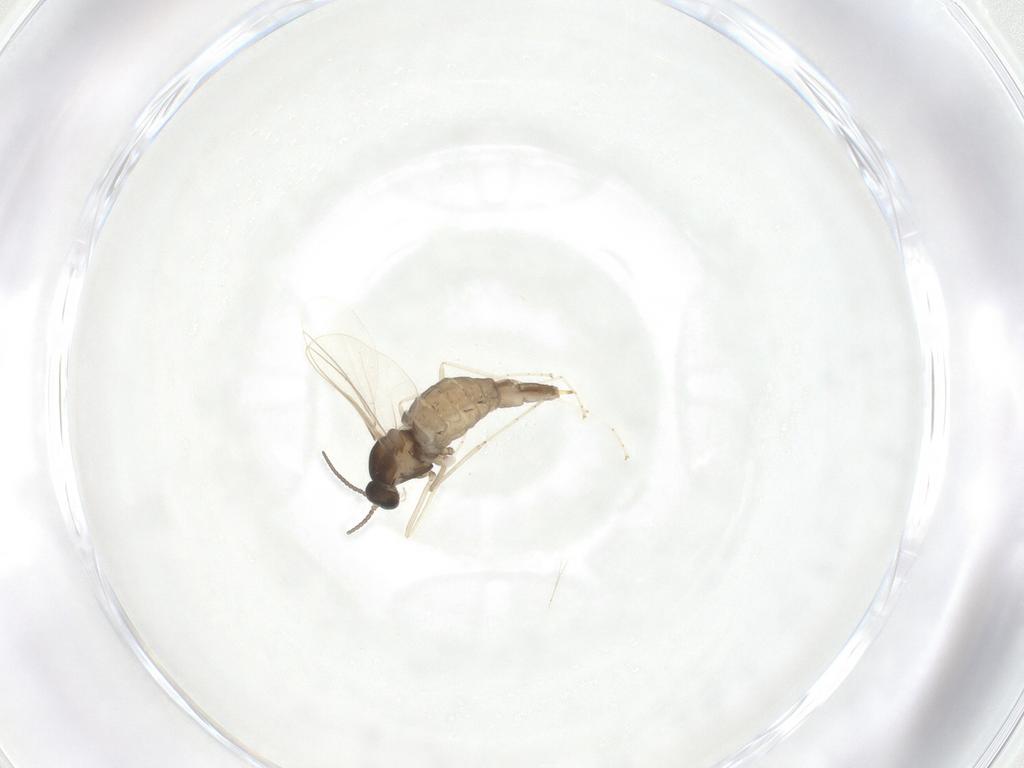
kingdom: Animalia
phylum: Arthropoda
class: Insecta
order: Diptera
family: Cecidomyiidae
